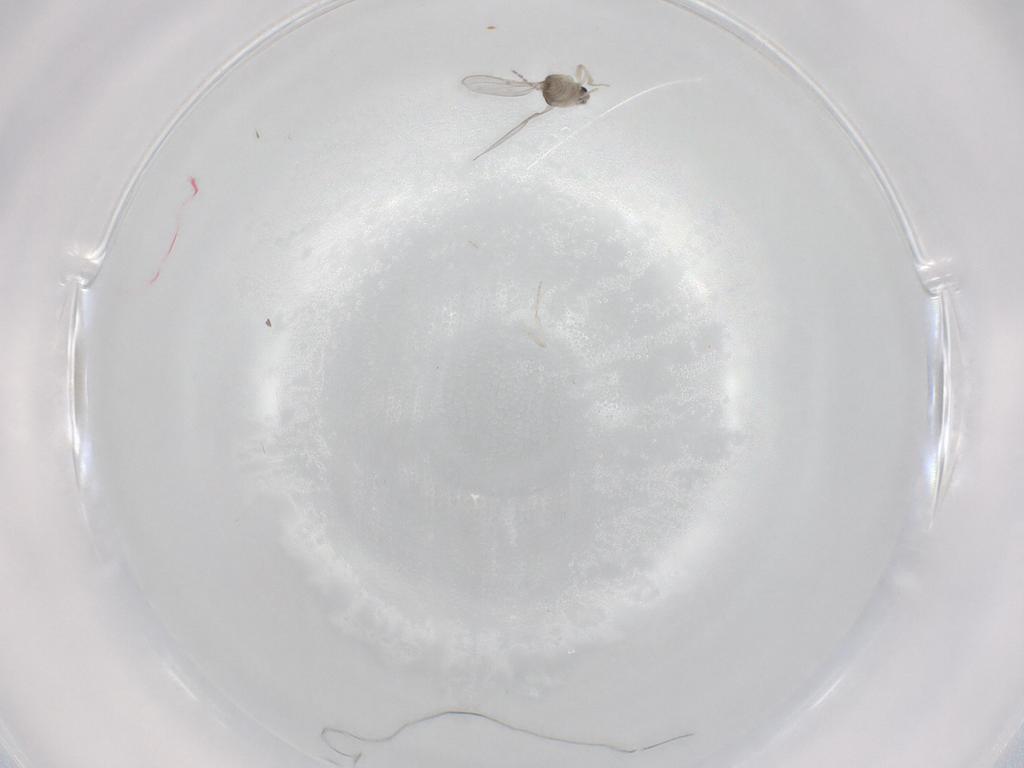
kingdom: Animalia
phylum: Arthropoda
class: Insecta
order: Diptera
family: Cecidomyiidae
